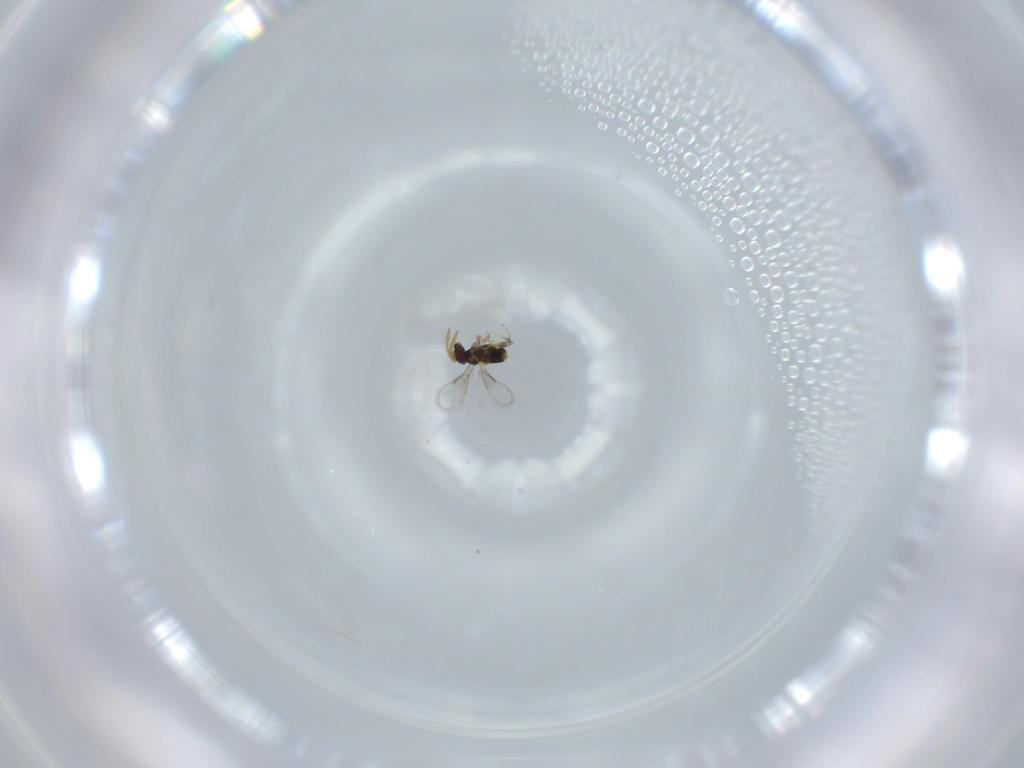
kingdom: Animalia
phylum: Arthropoda
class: Insecta
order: Hymenoptera
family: Aphelinidae
